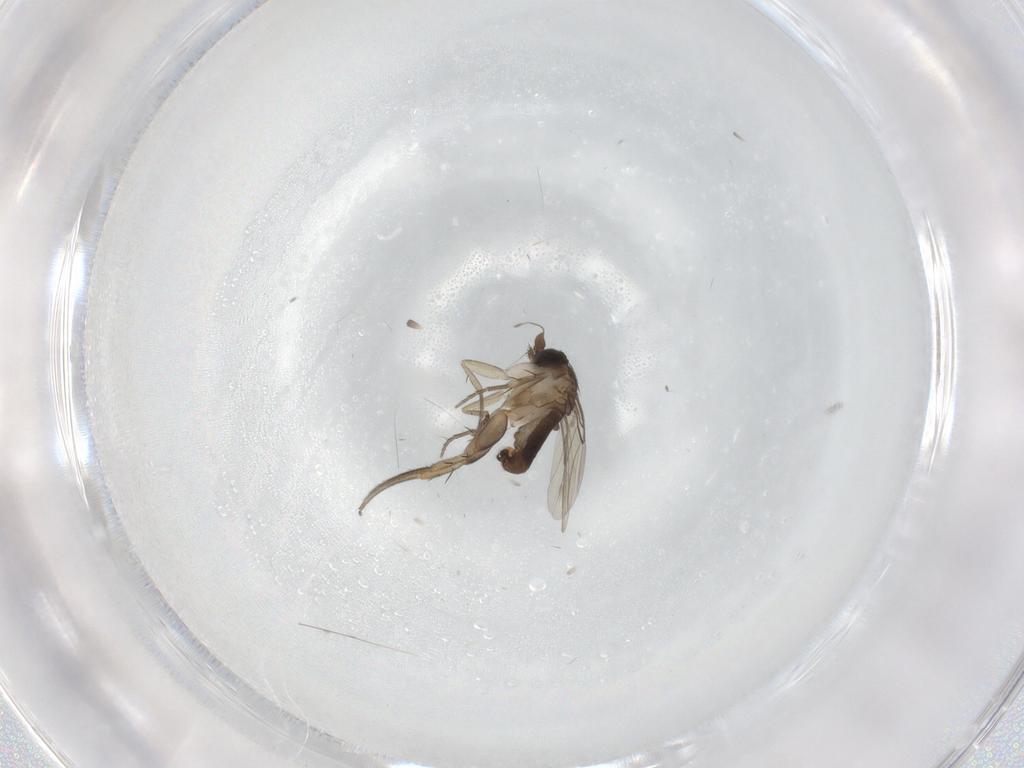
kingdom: Animalia
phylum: Arthropoda
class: Insecta
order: Diptera
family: Phoridae
